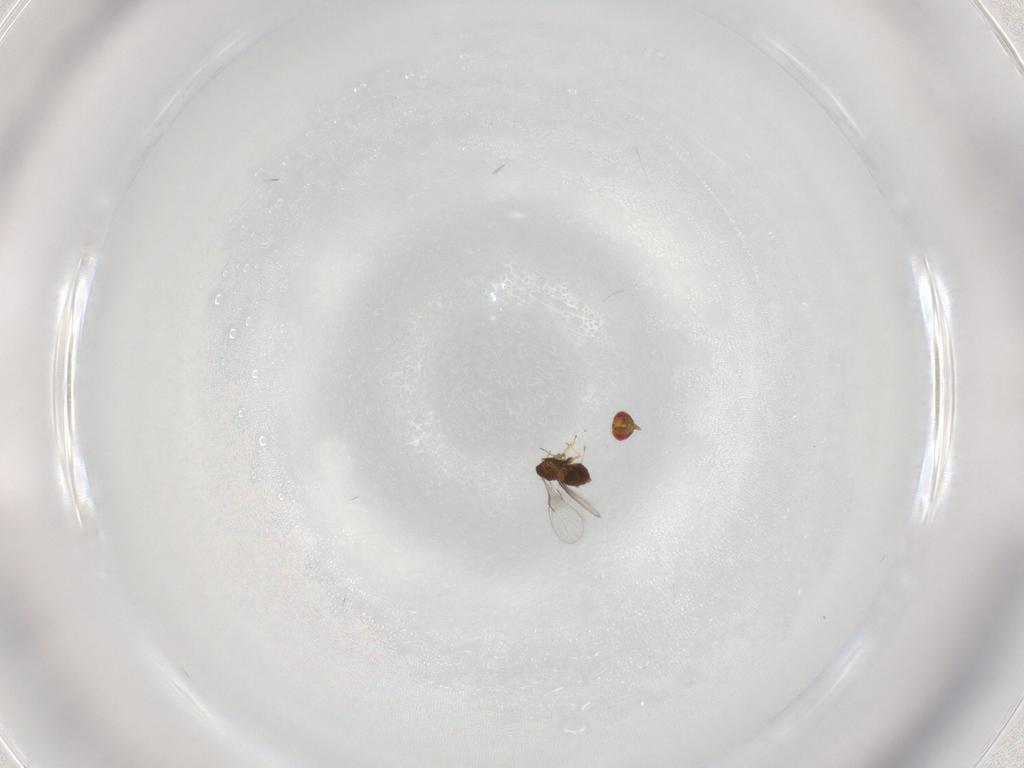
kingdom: Animalia
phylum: Arthropoda
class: Insecta
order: Hymenoptera
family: Trichogrammatidae
